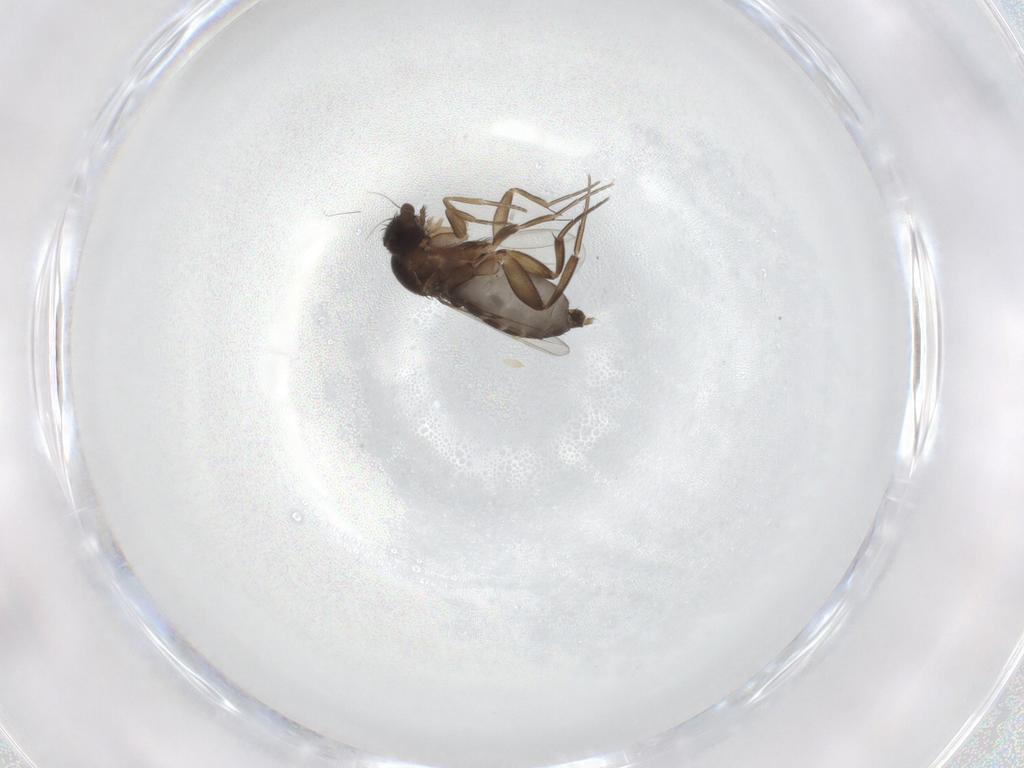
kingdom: Animalia
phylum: Arthropoda
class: Insecta
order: Diptera
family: Phoridae
